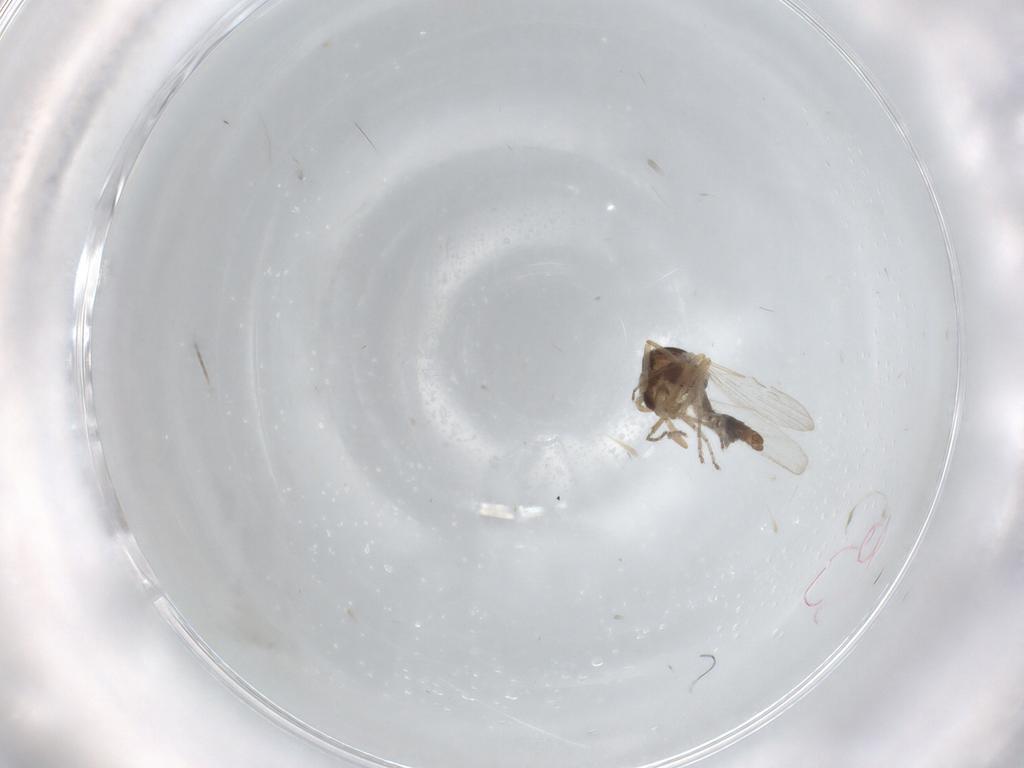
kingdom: Animalia
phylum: Arthropoda
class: Insecta
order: Diptera
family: Ceratopogonidae
